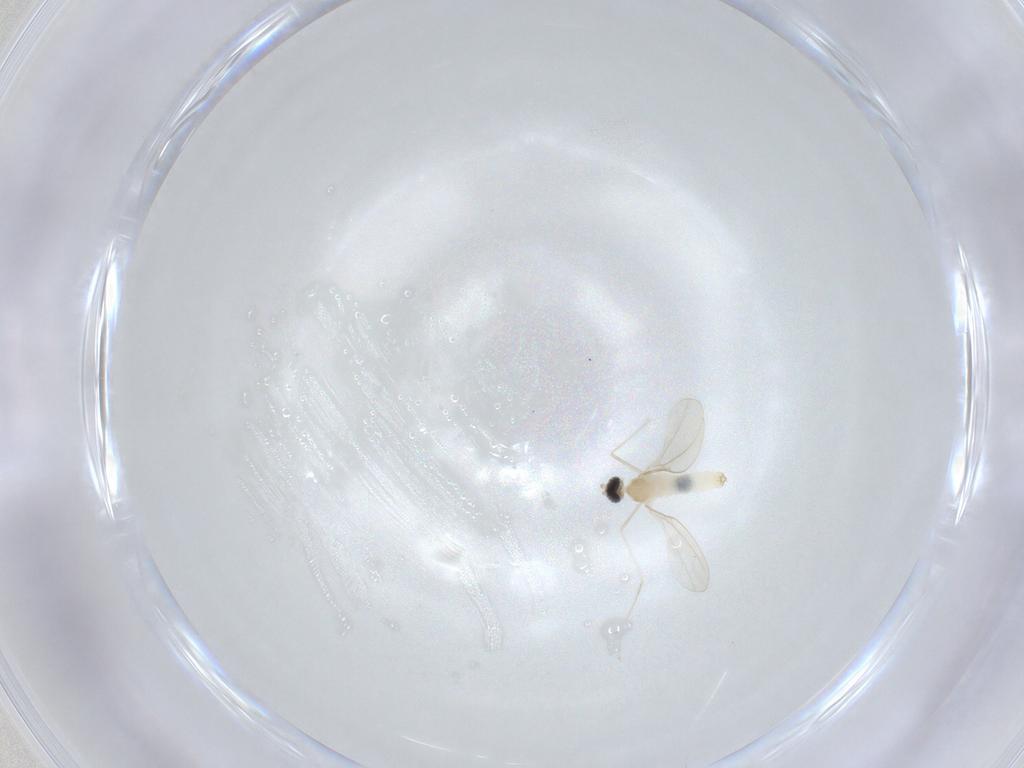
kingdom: Animalia
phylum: Arthropoda
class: Insecta
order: Diptera
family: Cecidomyiidae
